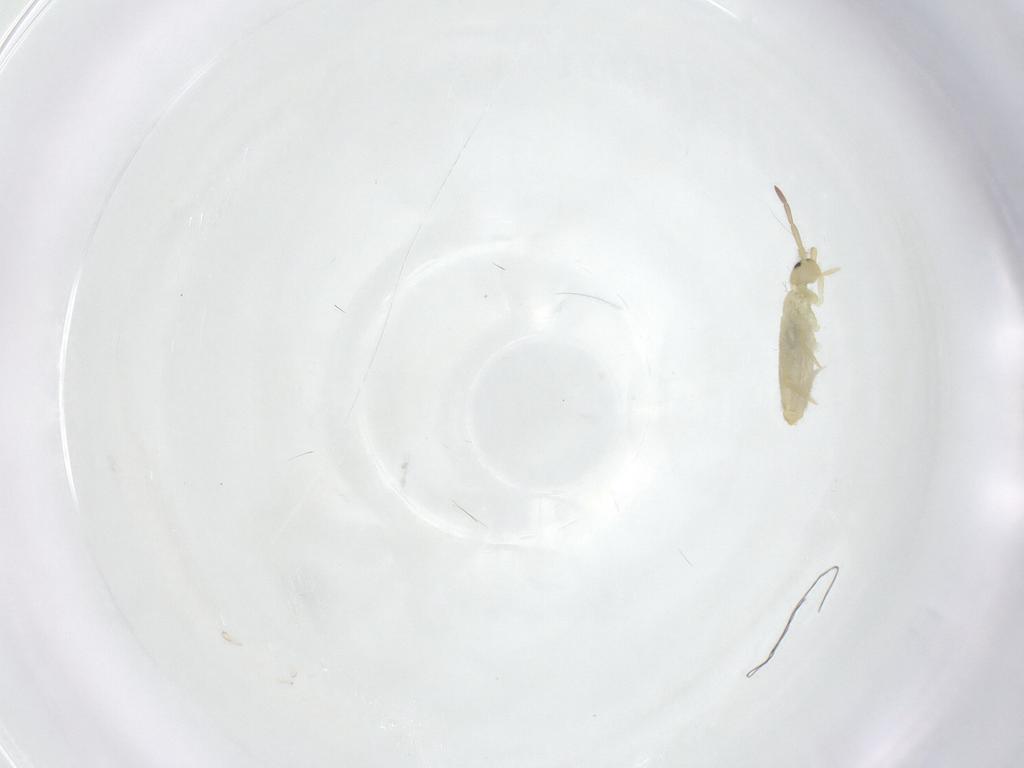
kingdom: Animalia
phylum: Arthropoda
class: Collembola
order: Entomobryomorpha
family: Entomobryidae
